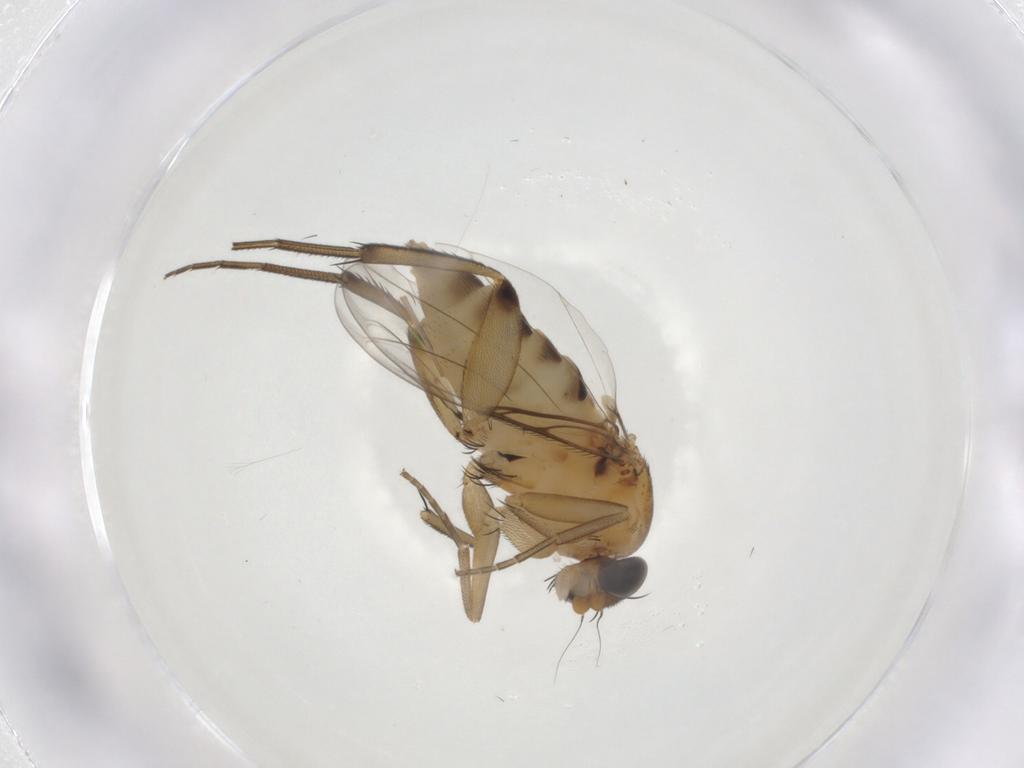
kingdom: Animalia
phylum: Arthropoda
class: Insecta
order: Diptera
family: Phoridae
